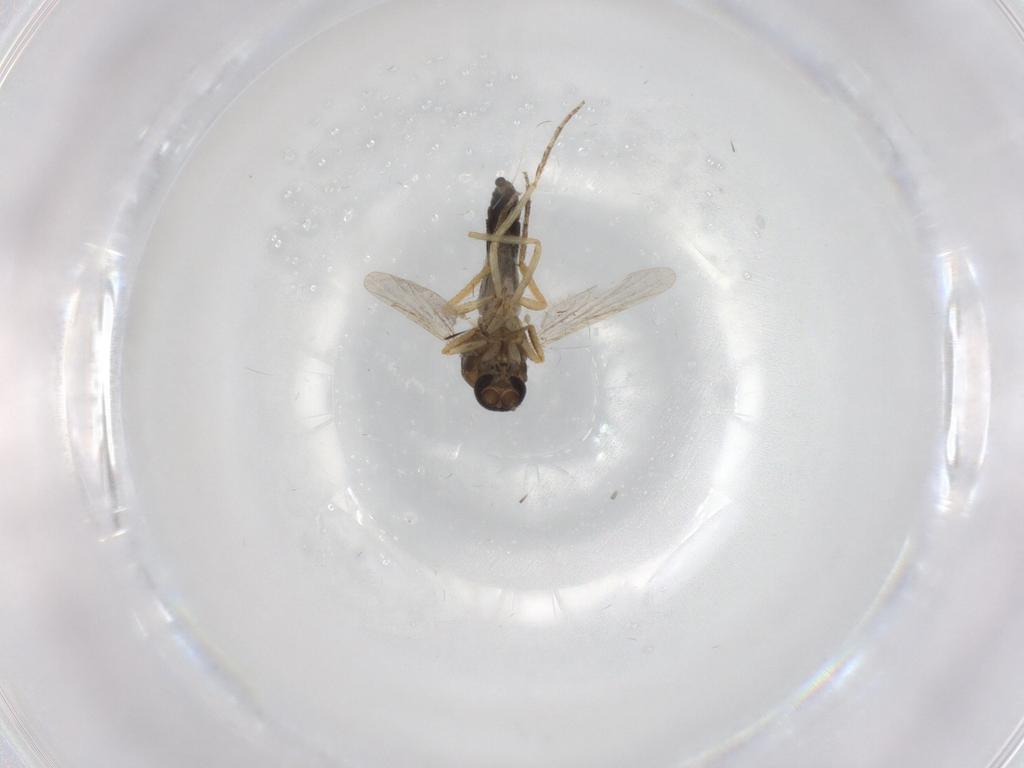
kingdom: Animalia
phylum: Arthropoda
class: Insecta
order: Diptera
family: Ceratopogonidae
